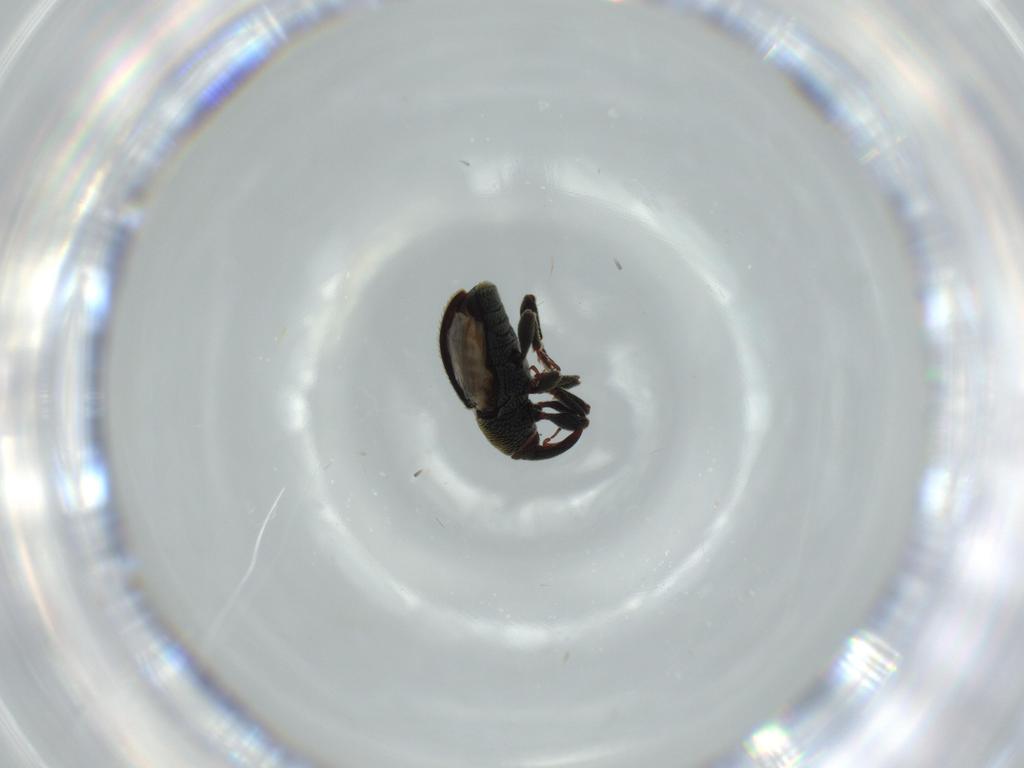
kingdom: Animalia
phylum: Arthropoda
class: Insecta
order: Coleoptera
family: Curculionidae
